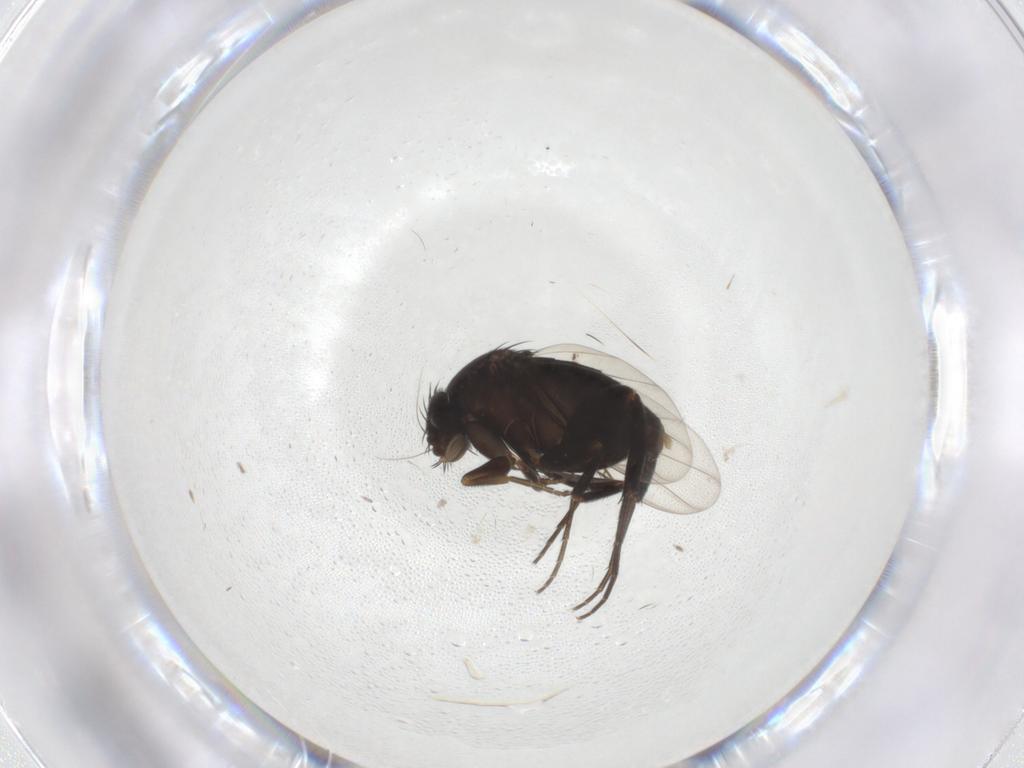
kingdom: Animalia
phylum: Arthropoda
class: Insecta
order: Diptera
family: Phoridae
